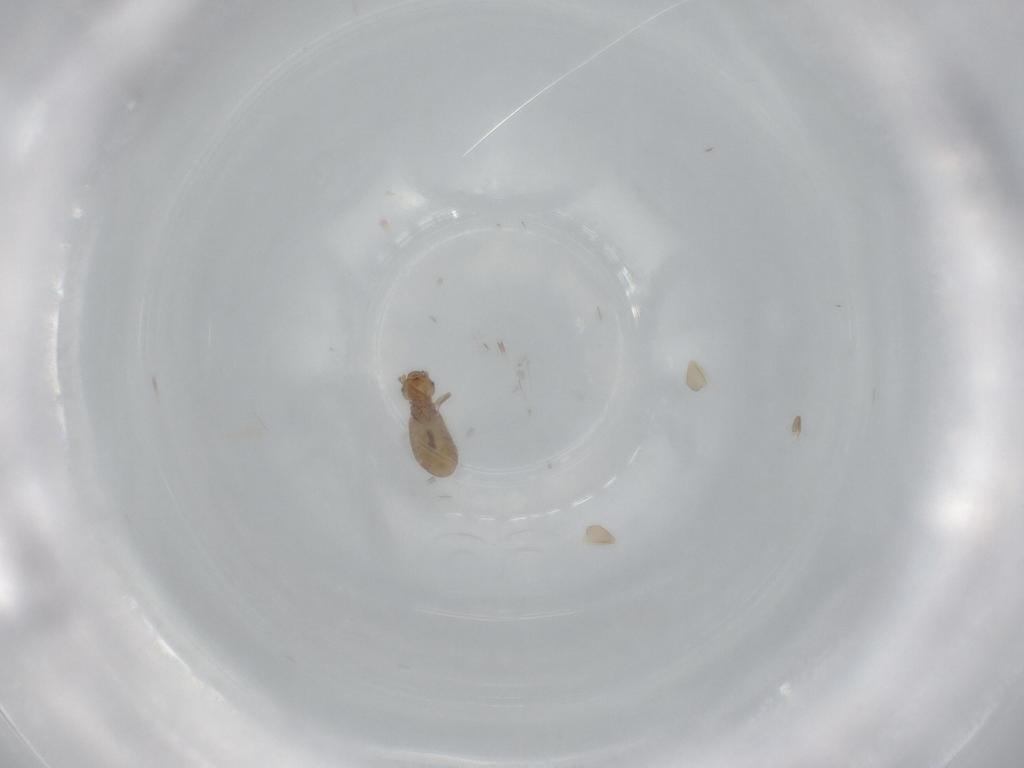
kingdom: Animalia
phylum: Arthropoda
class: Insecta
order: Psocodea
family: Liposcelididae
